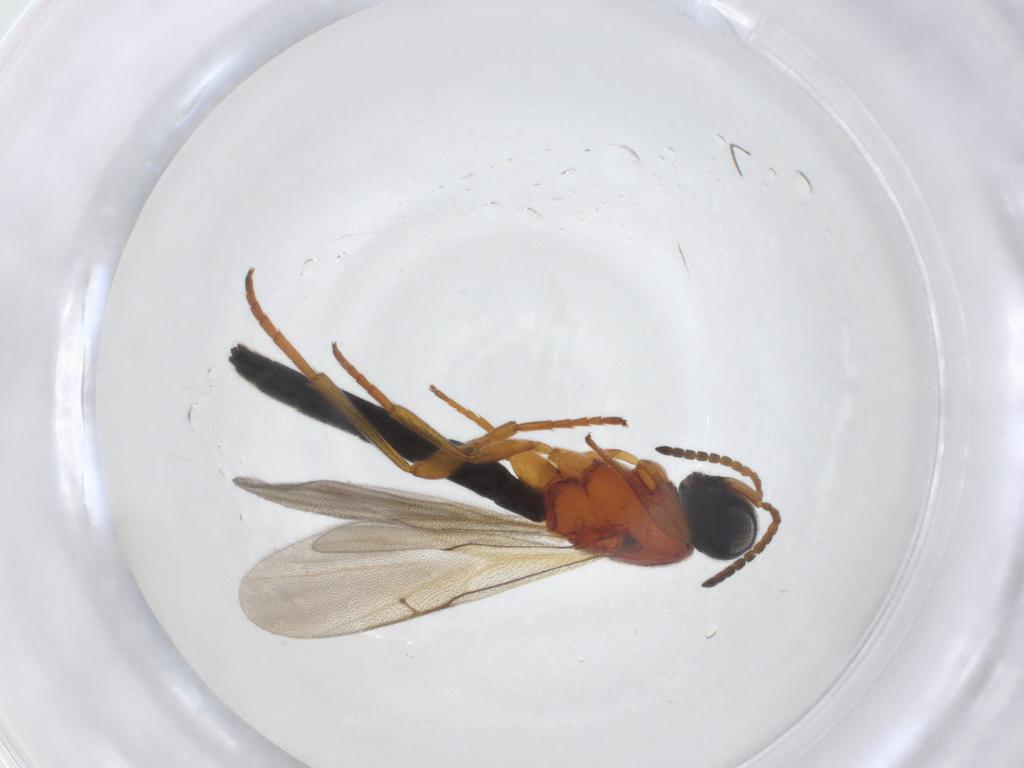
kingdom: Animalia
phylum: Arthropoda
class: Insecta
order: Hymenoptera
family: Scelionidae
